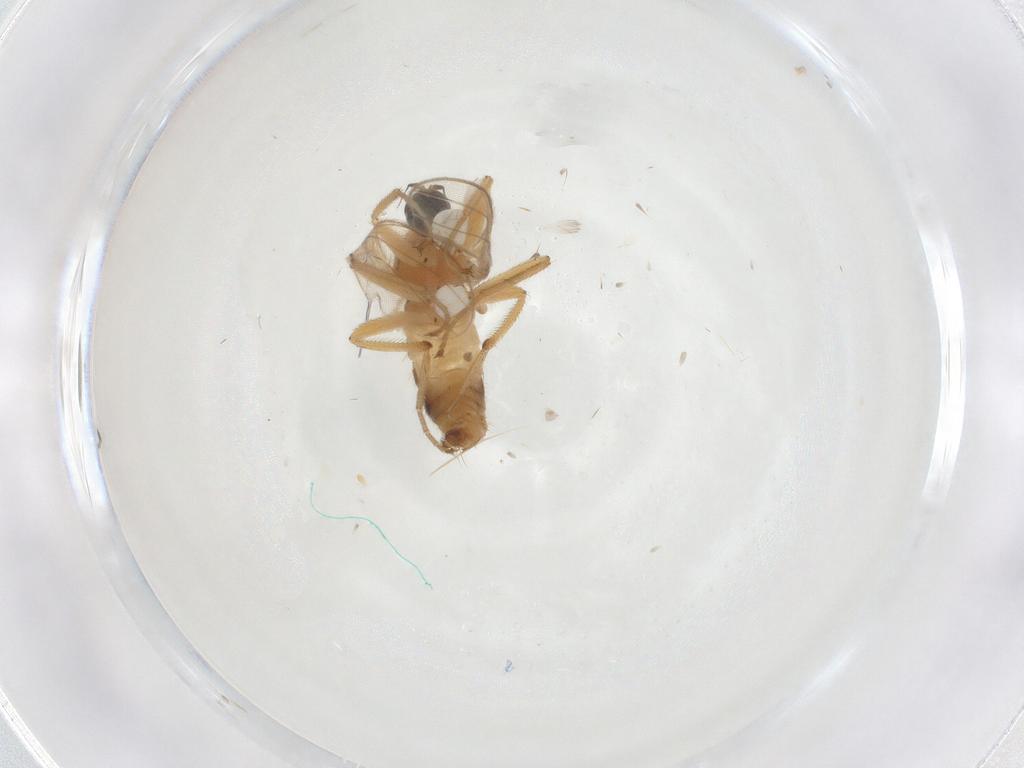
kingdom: Animalia
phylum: Arthropoda
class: Insecta
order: Diptera
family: Hybotidae
